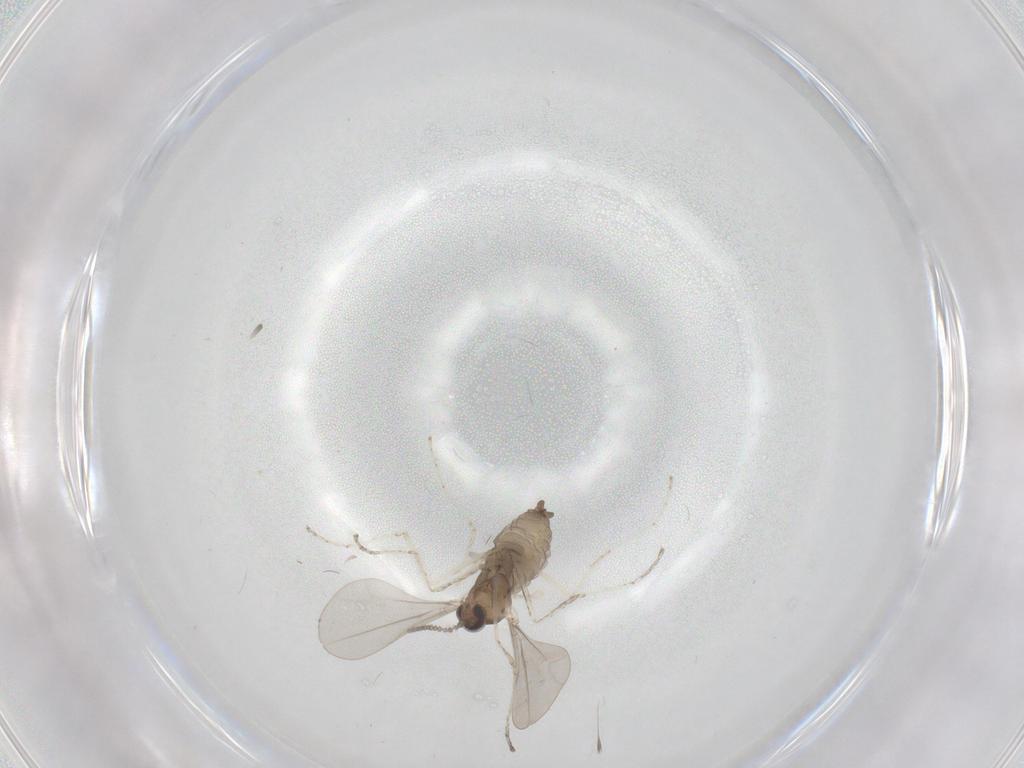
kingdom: Animalia
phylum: Arthropoda
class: Insecta
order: Diptera
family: Sciaridae
